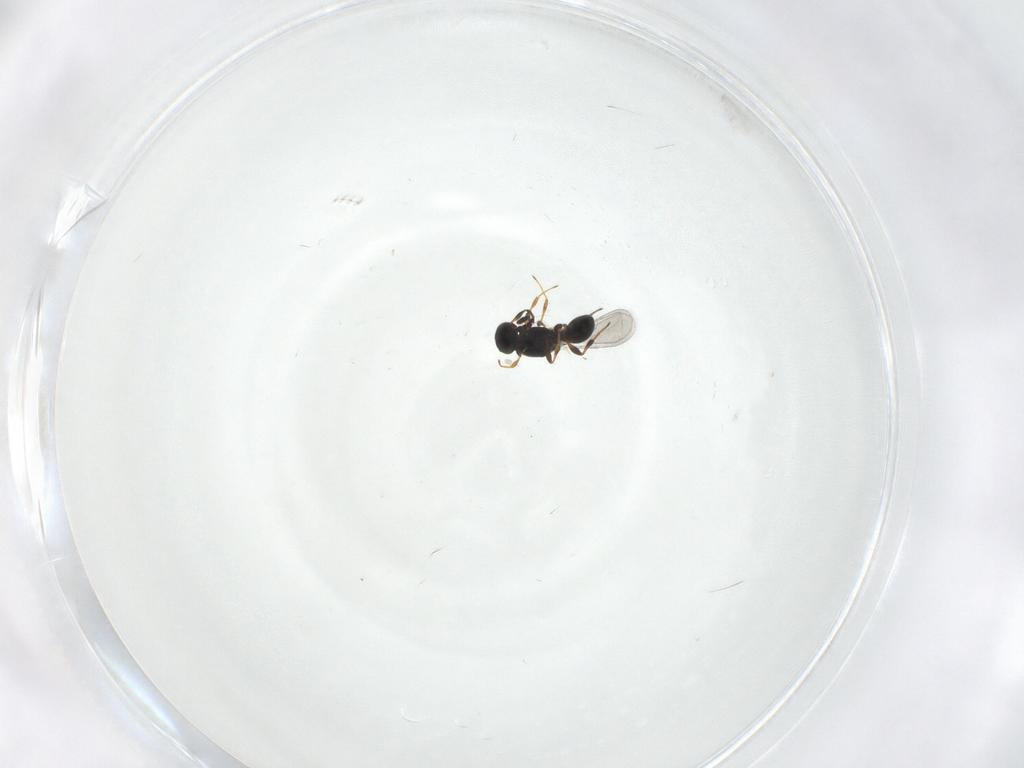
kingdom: Animalia
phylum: Arthropoda
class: Insecta
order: Hymenoptera
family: Platygastridae
